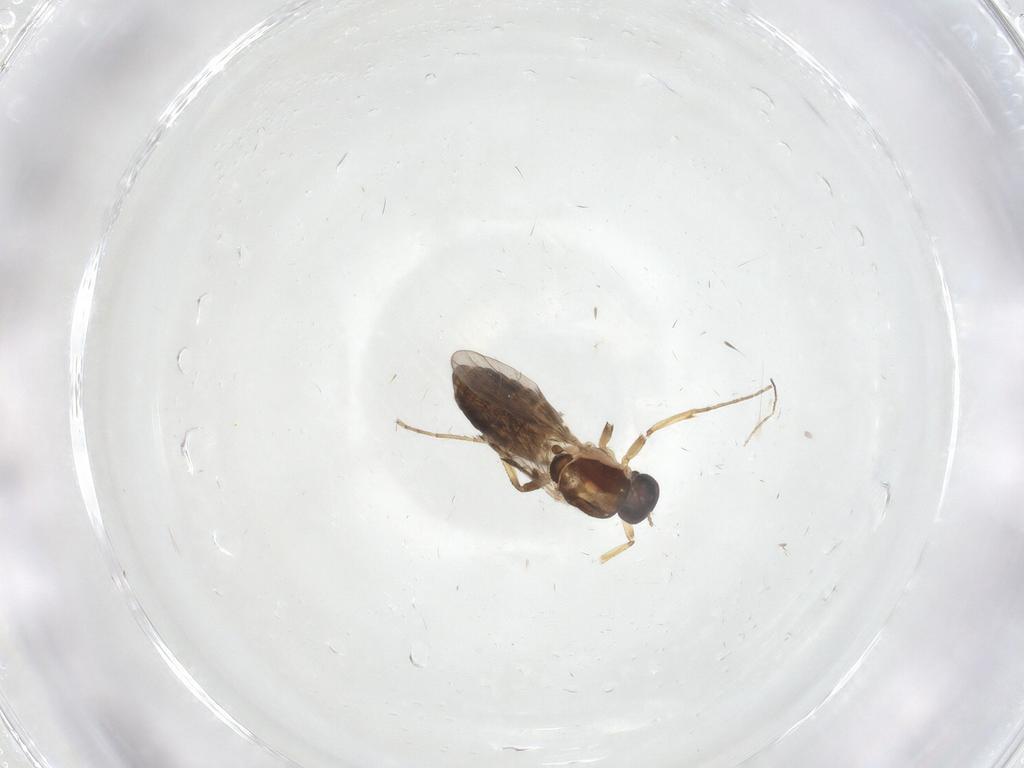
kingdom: Animalia
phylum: Arthropoda
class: Insecta
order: Diptera
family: Ceratopogonidae
